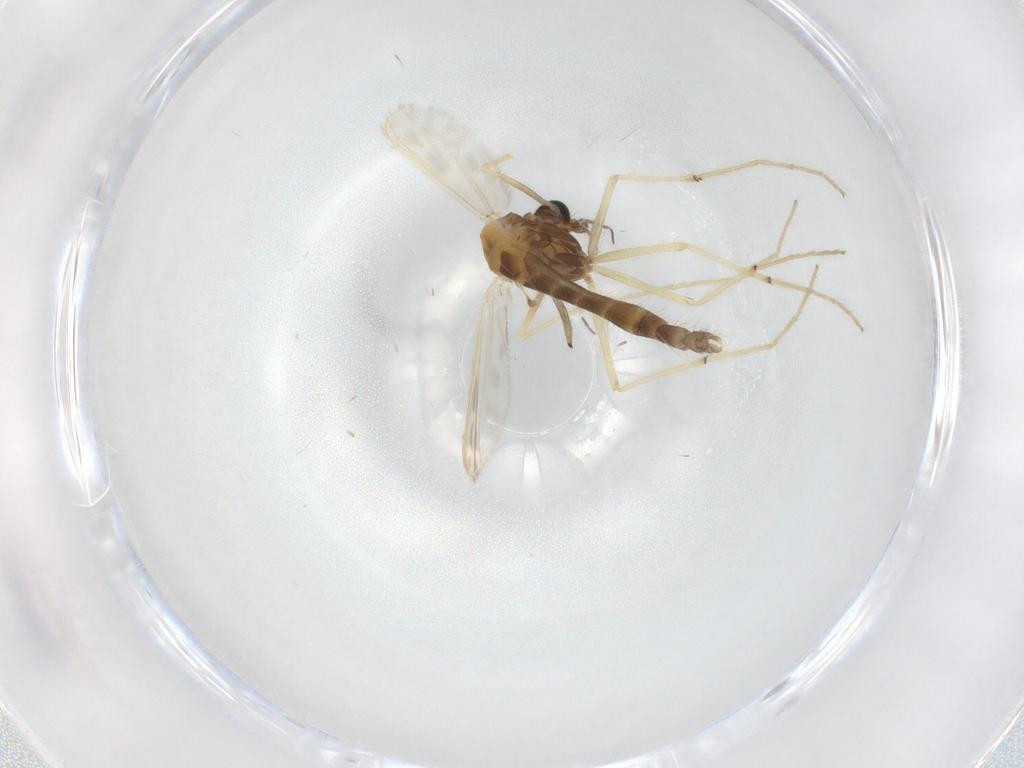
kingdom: Animalia
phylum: Arthropoda
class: Insecta
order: Diptera
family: Chironomidae
